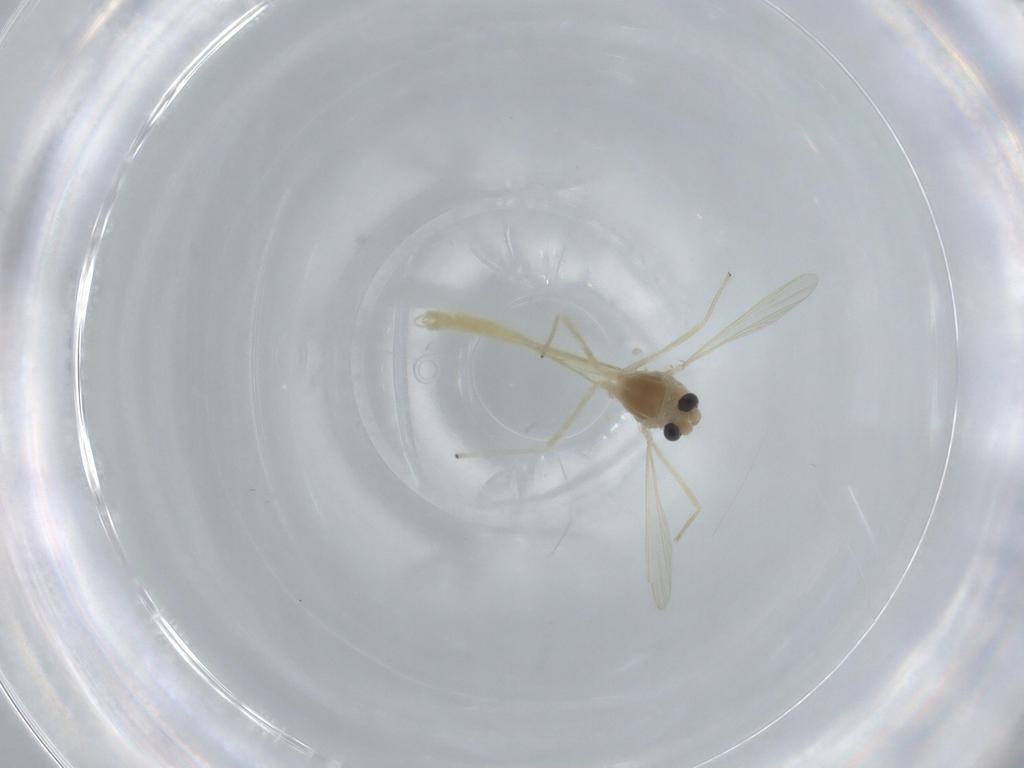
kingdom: Animalia
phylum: Arthropoda
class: Insecta
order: Diptera
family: Chironomidae
